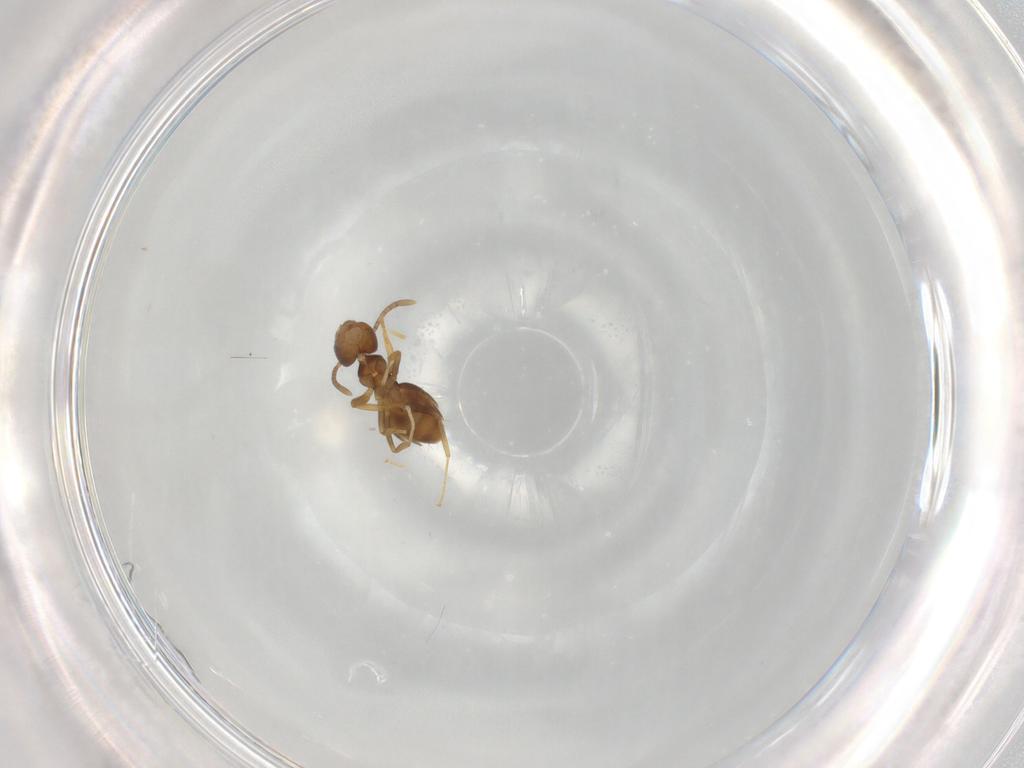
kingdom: Animalia
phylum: Arthropoda
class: Insecta
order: Hymenoptera
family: Formicidae
